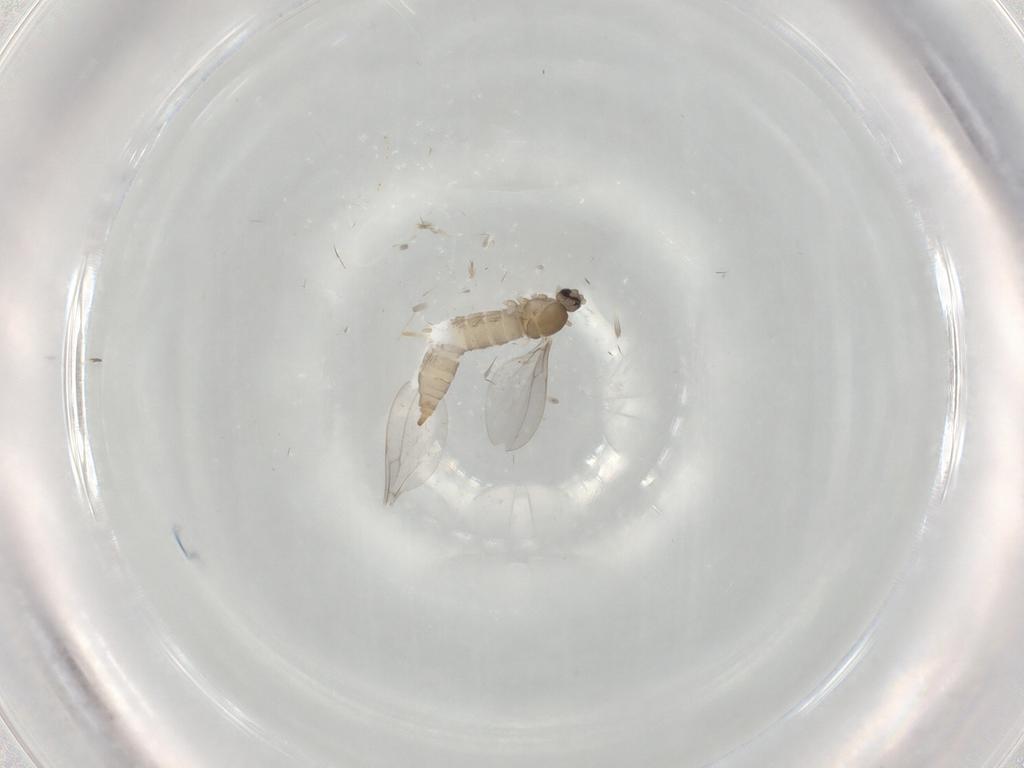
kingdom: Animalia
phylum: Arthropoda
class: Insecta
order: Diptera
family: Cecidomyiidae
